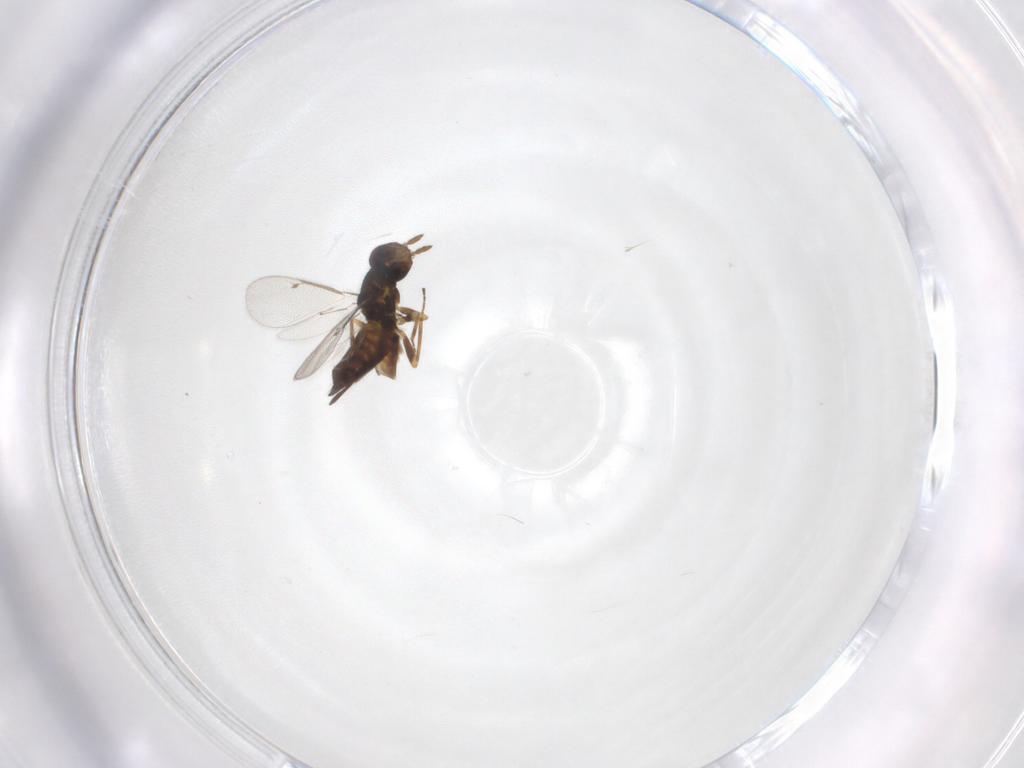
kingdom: Animalia
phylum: Arthropoda
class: Insecta
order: Hymenoptera
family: Eulophidae
